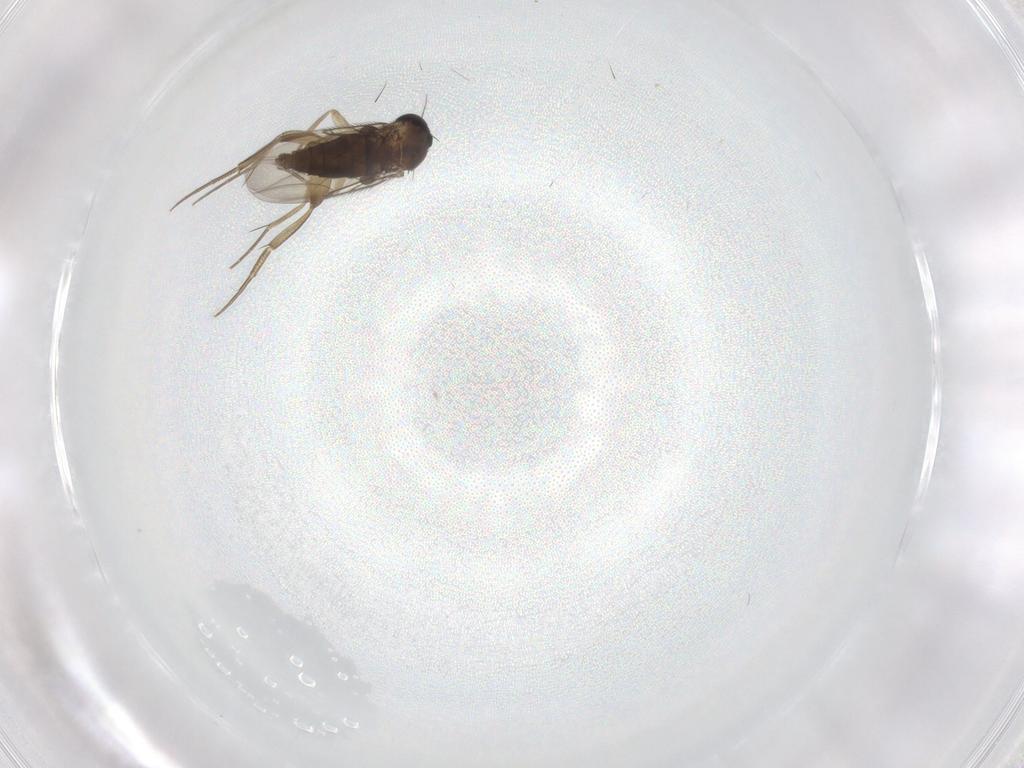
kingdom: Animalia
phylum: Arthropoda
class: Insecta
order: Diptera
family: Phoridae
